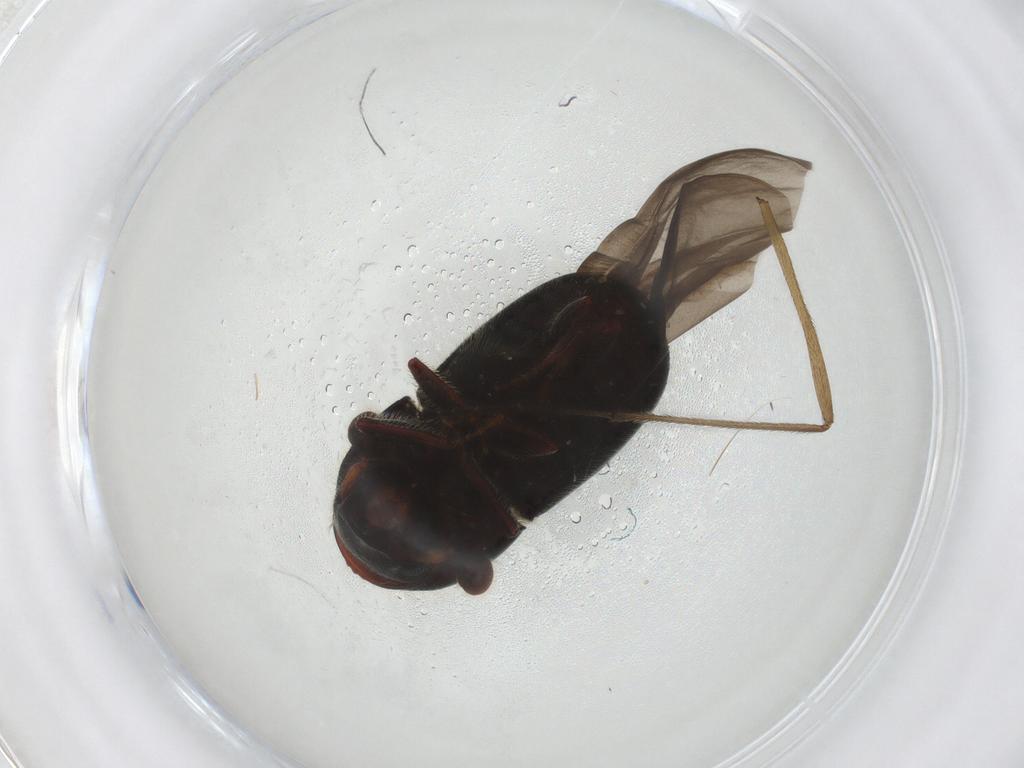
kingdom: Animalia
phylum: Arthropoda
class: Insecta
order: Coleoptera
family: Curculionidae
